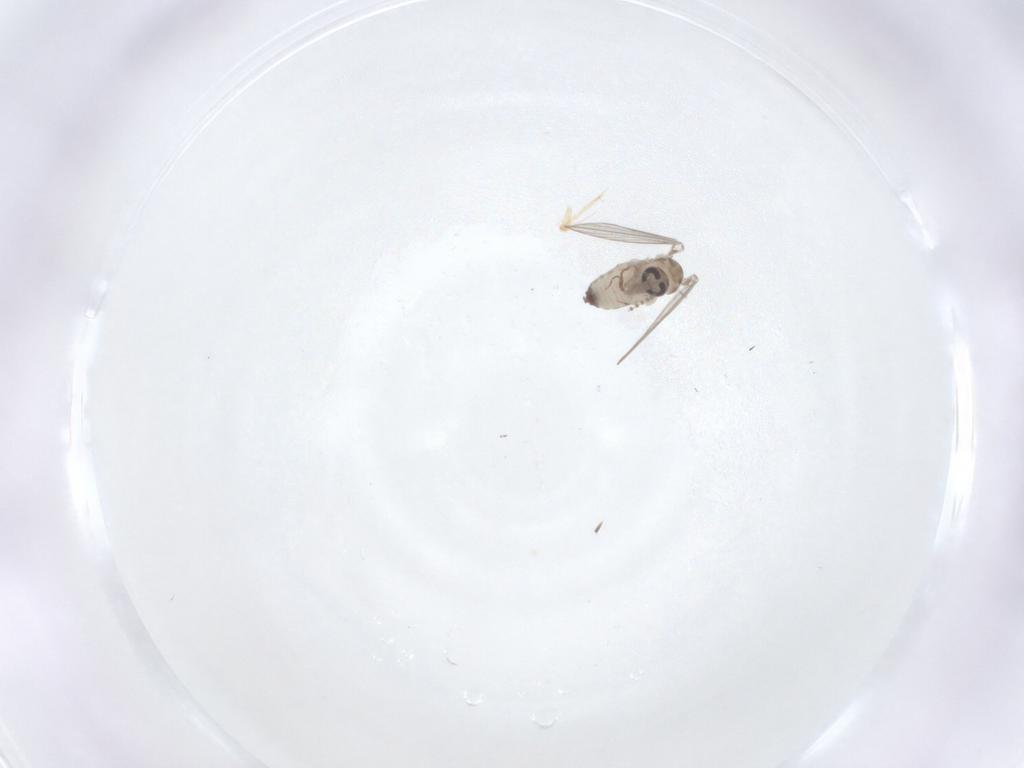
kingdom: Animalia
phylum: Arthropoda
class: Insecta
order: Diptera
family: Psychodidae
